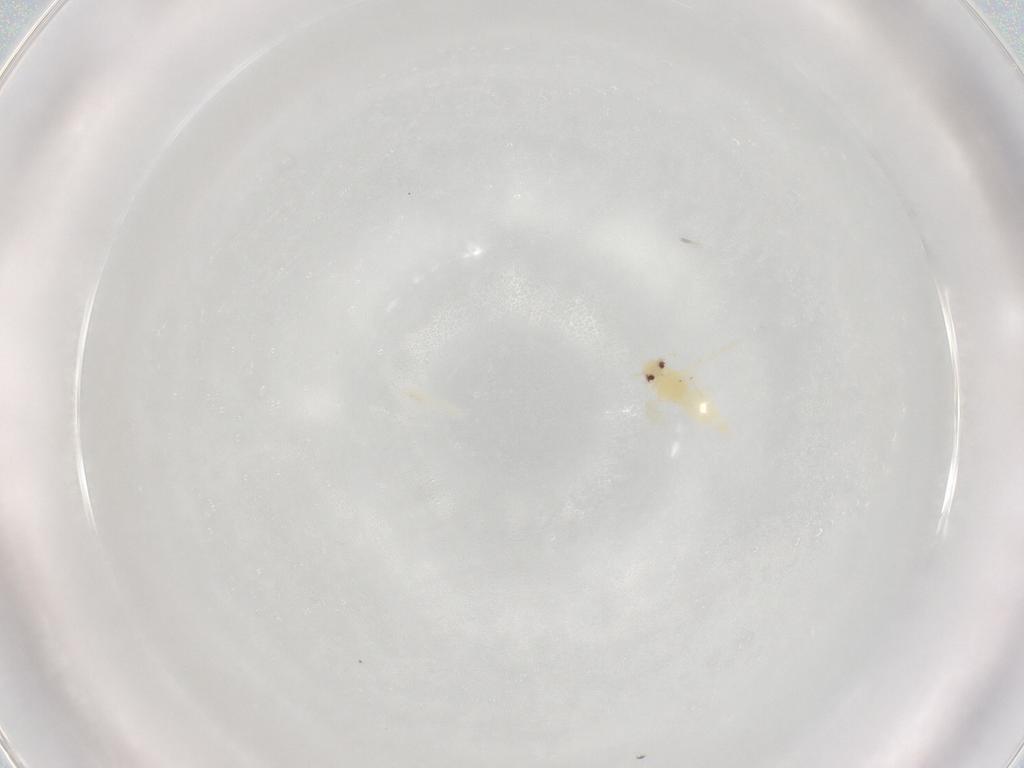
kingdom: Animalia
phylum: Arthropoda
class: Insecta
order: Hemiptera
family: Aleyrodidae
